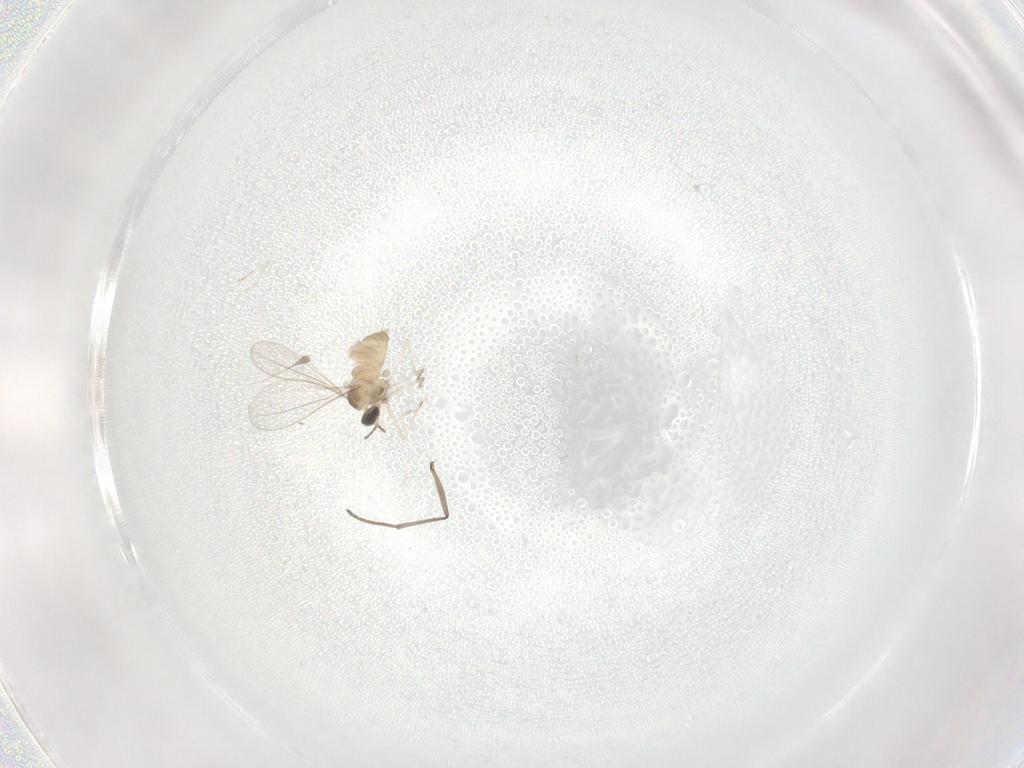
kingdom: Animalia
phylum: Arthropoda
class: Insecta
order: Diptera
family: Cecidomyiidae
